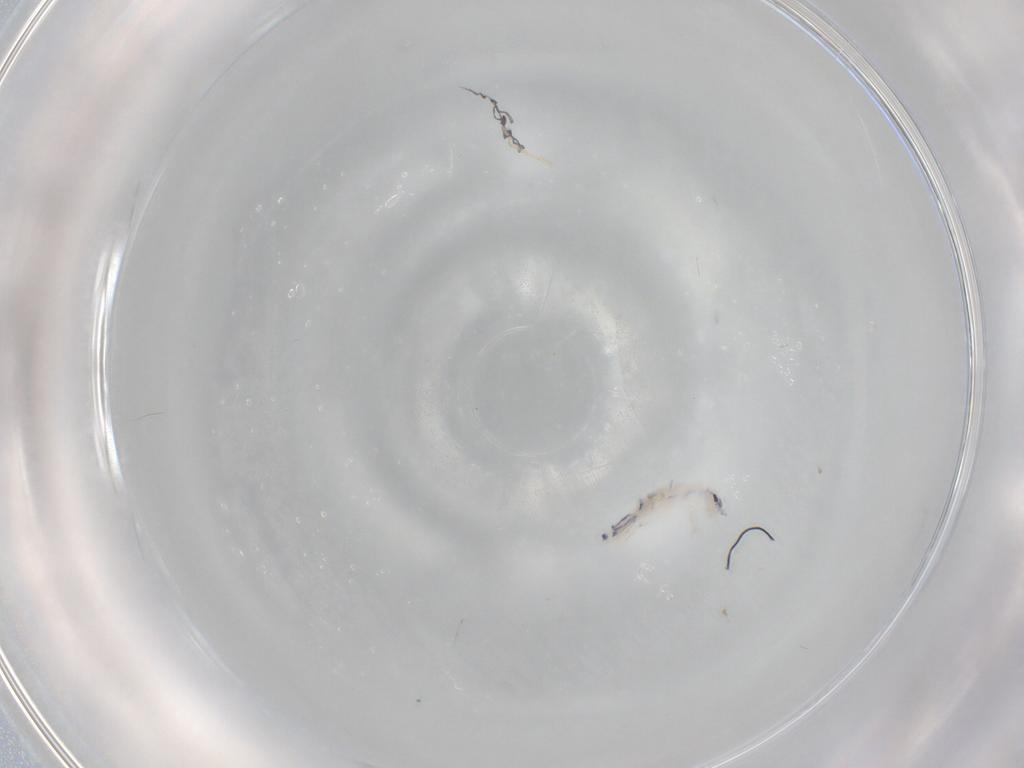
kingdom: Animalia
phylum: Arthropoda
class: Collembola
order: Entomobryomorpha
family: Entomobryidae
